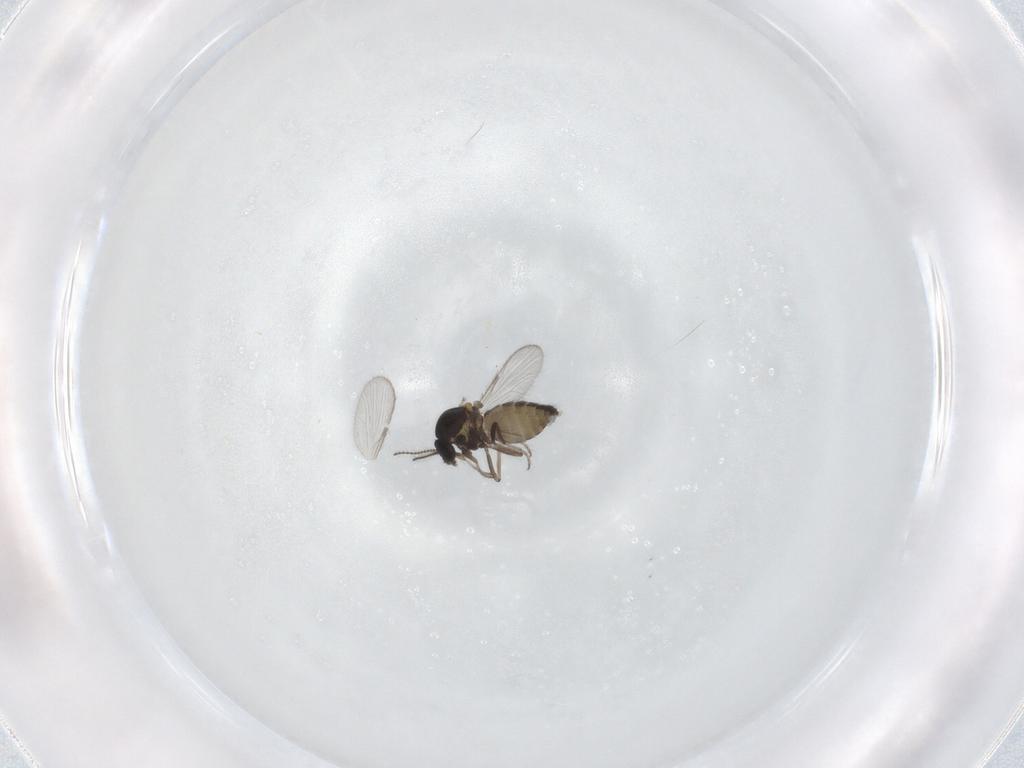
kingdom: Animalia
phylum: Arthropoda
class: Insecta
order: Diptera
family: Ceratopogonidae
